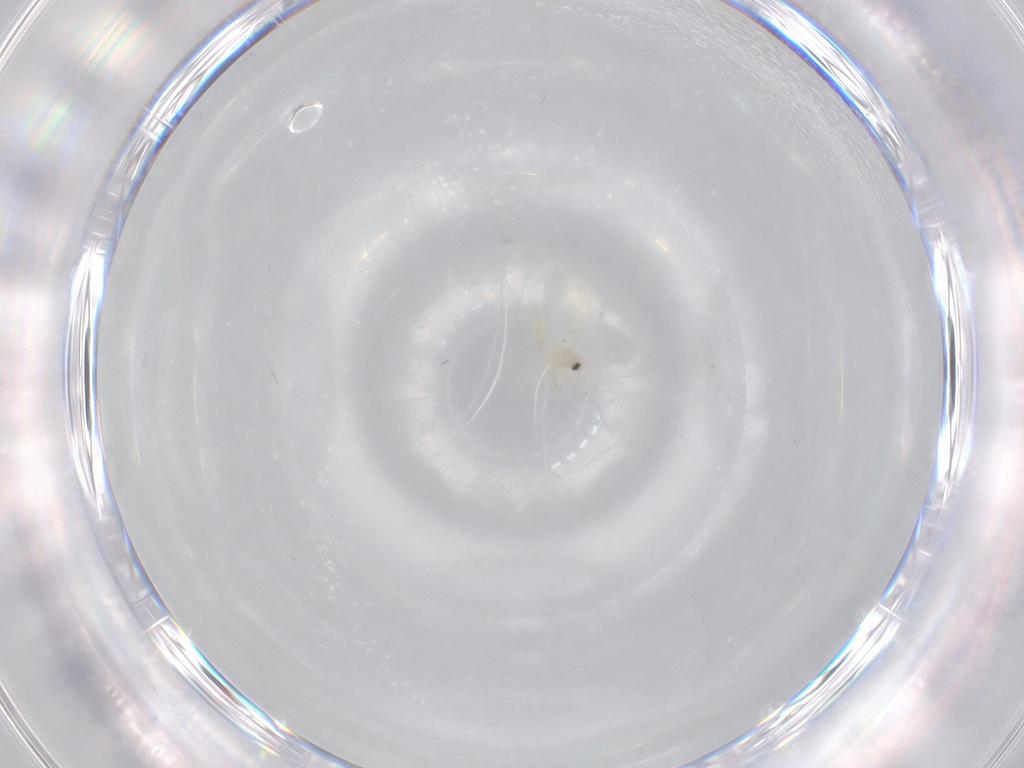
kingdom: Animalia
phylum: Arthropoda
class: Insecta
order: Hemiptera
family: Aleyrodidae
